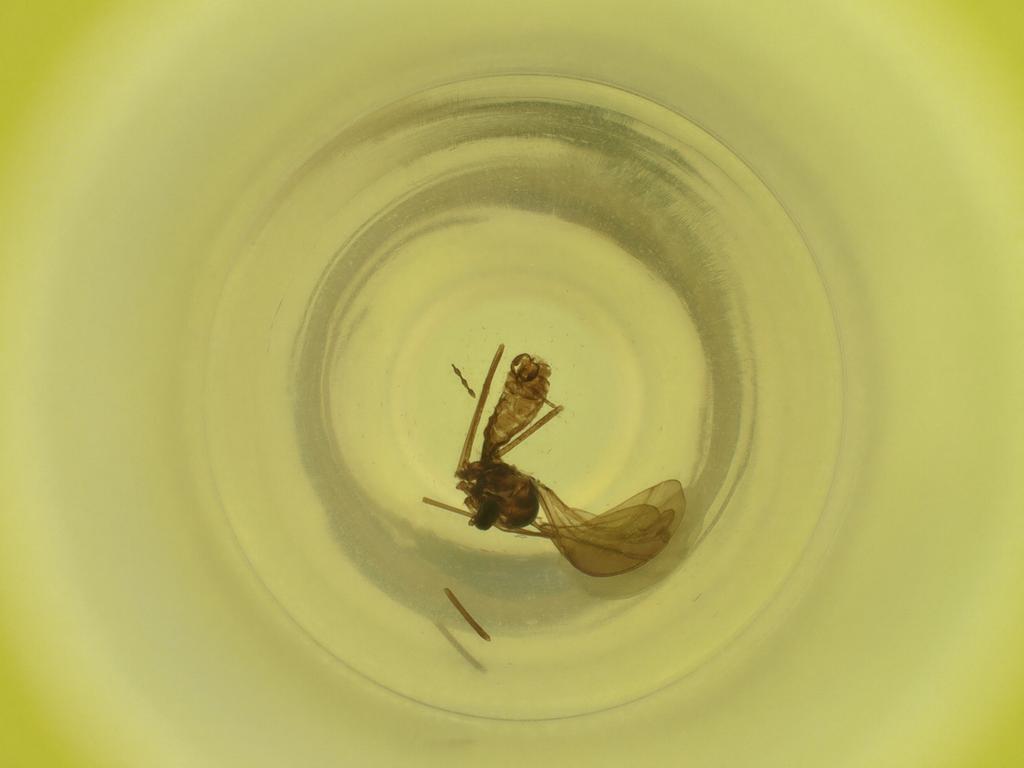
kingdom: Animalia
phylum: Arthropoda
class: Insecta
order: Diptera
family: Cecidomyiidae
